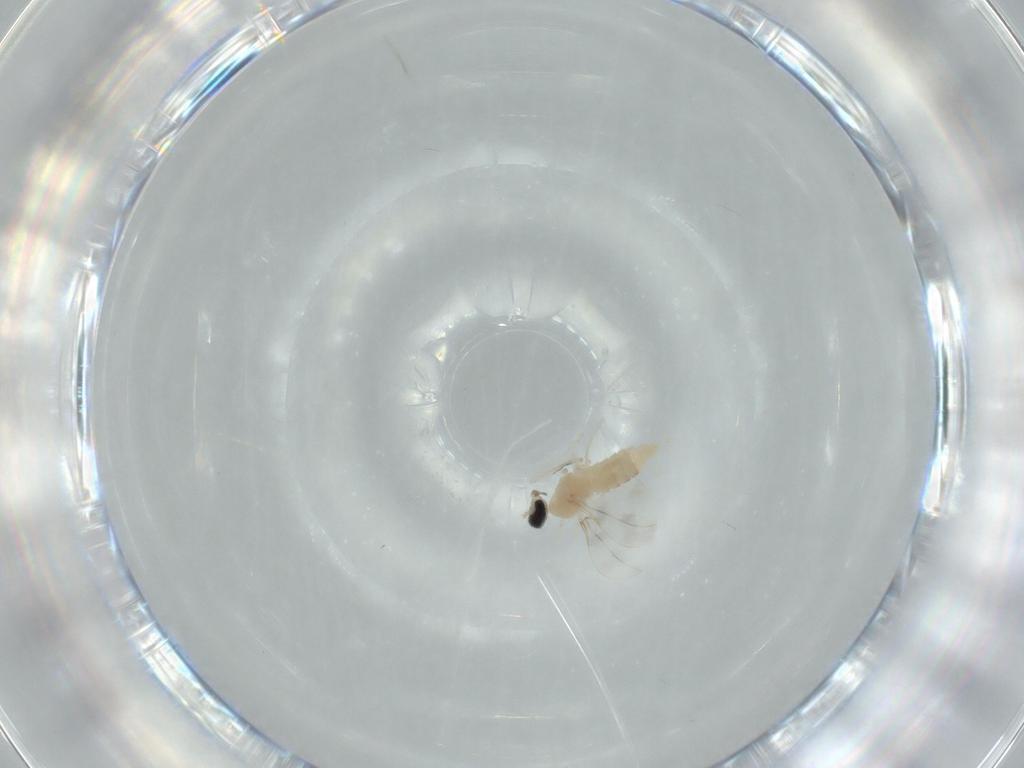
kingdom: Animalia
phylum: Arthropoda
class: Insecta
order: Diptera
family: Cecidomyiidae
